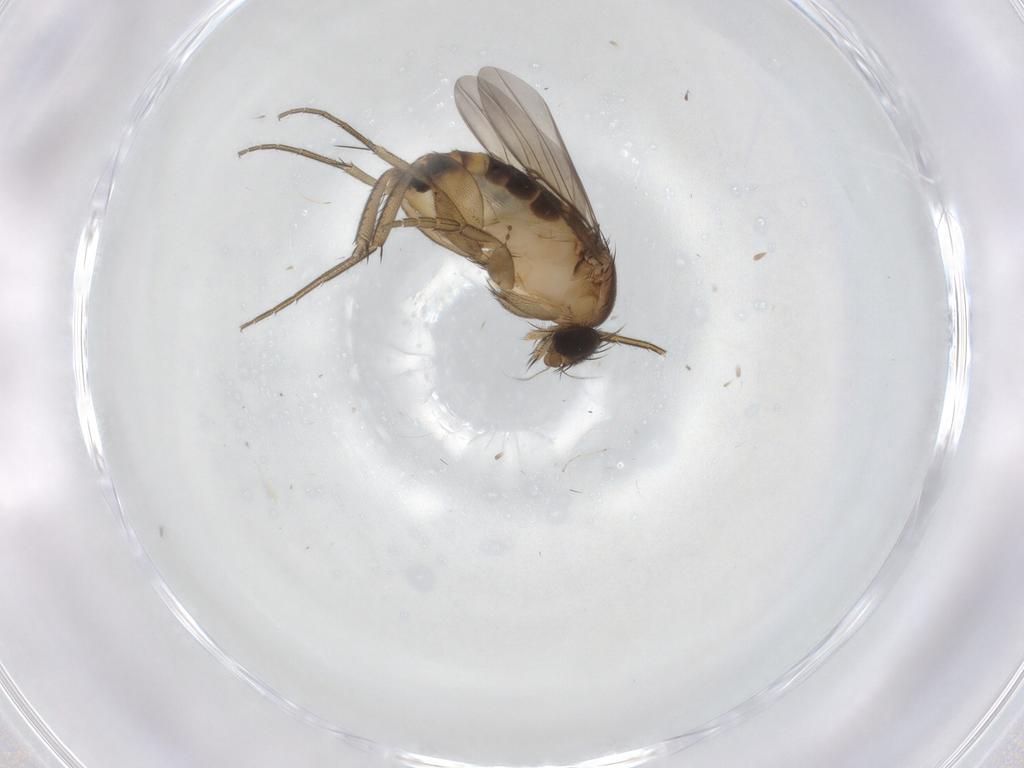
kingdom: Animalia
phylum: Arthropoda
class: Insecta
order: Diptera
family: Phoridae
